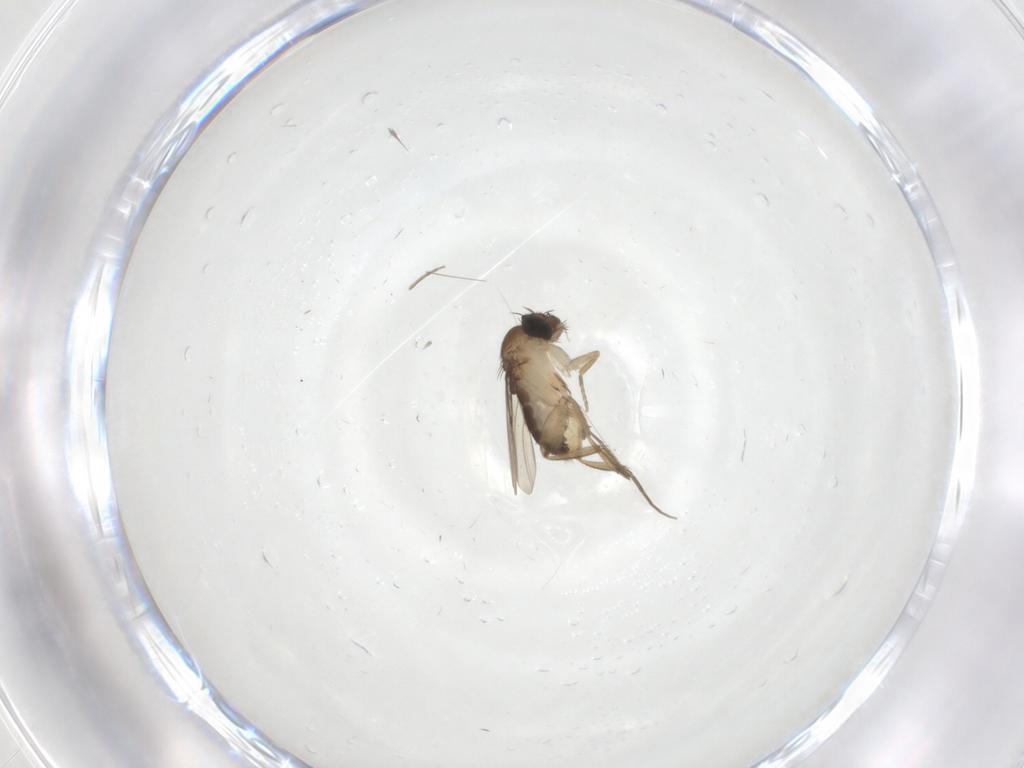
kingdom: Animalia
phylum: Arthropoda
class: Insecta
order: Diptera
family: Phoridae
